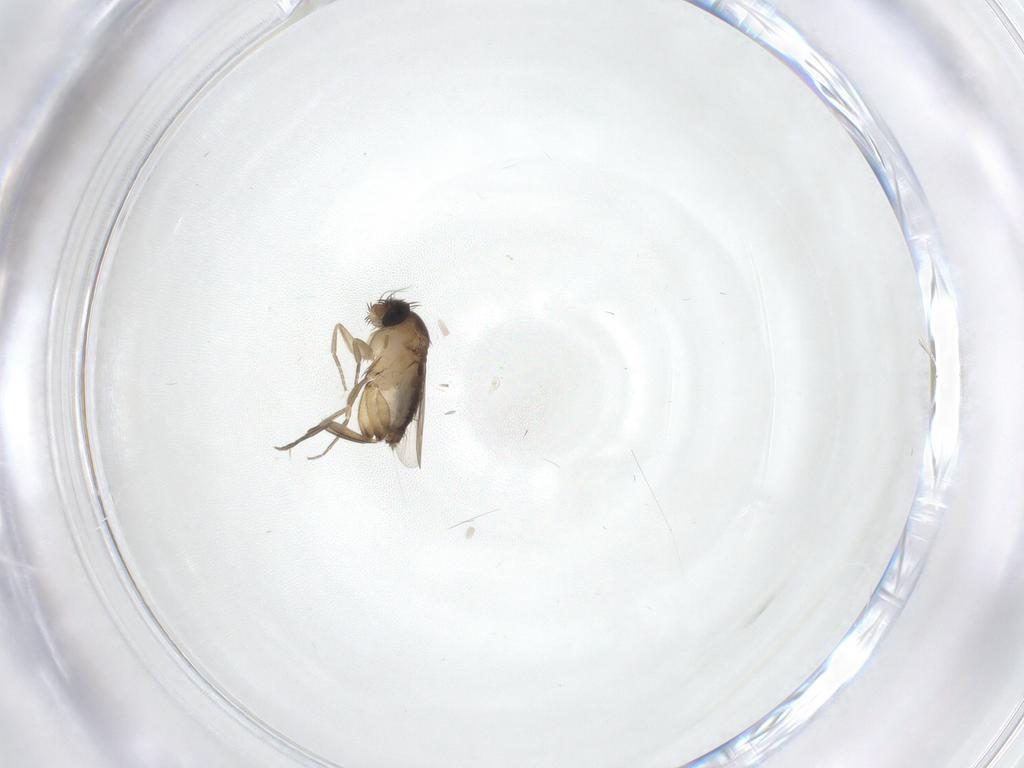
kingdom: Animalia
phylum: Arthropoda
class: Insecta
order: Diptera
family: Phoridae
